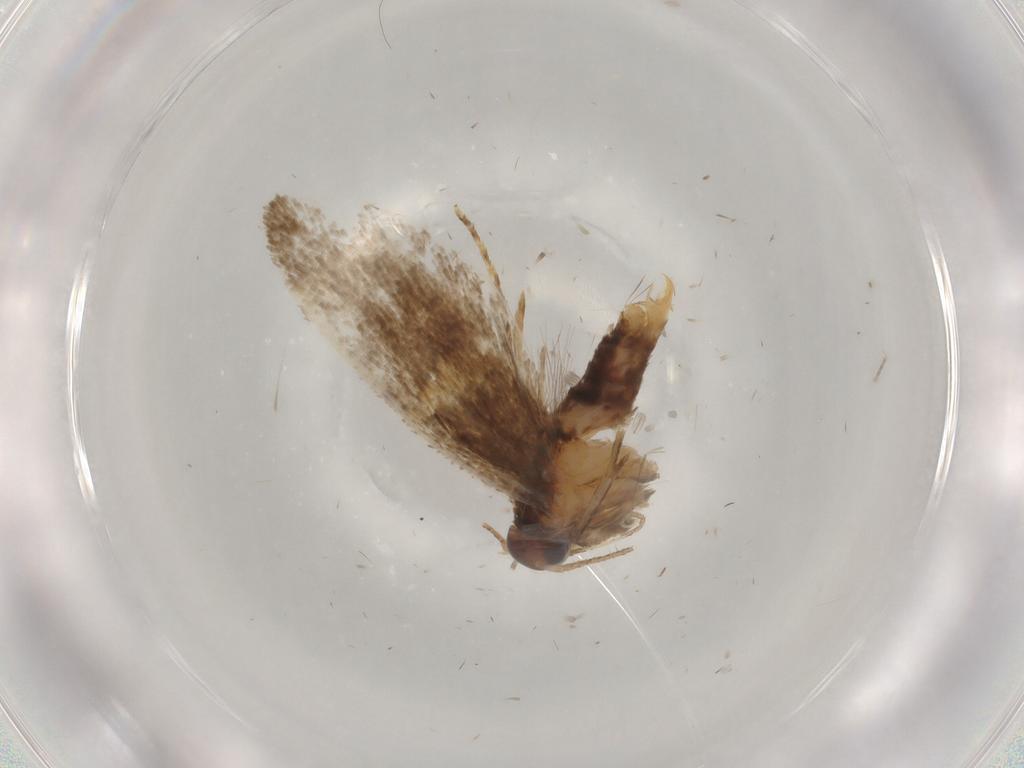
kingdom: Animalia
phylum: Arthropoda
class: Insecta
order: Lepidoptera
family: Oecophoridae
